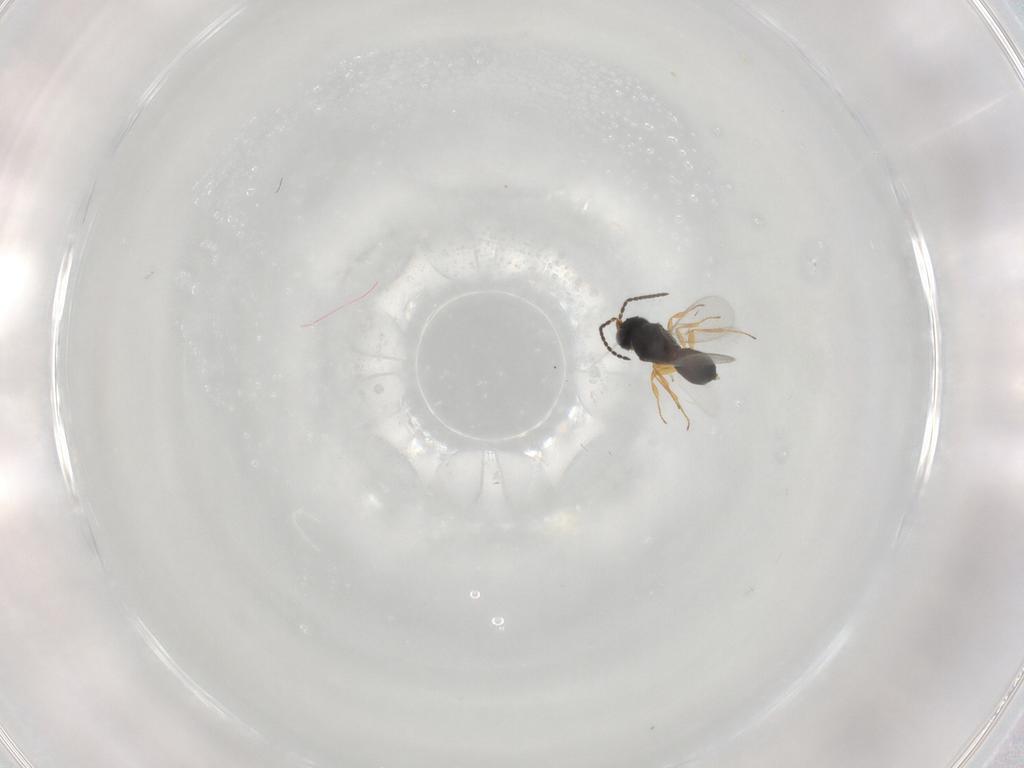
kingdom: Animalia
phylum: Arthropoda
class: Insecta
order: Hymenoptera
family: Scelionidae
